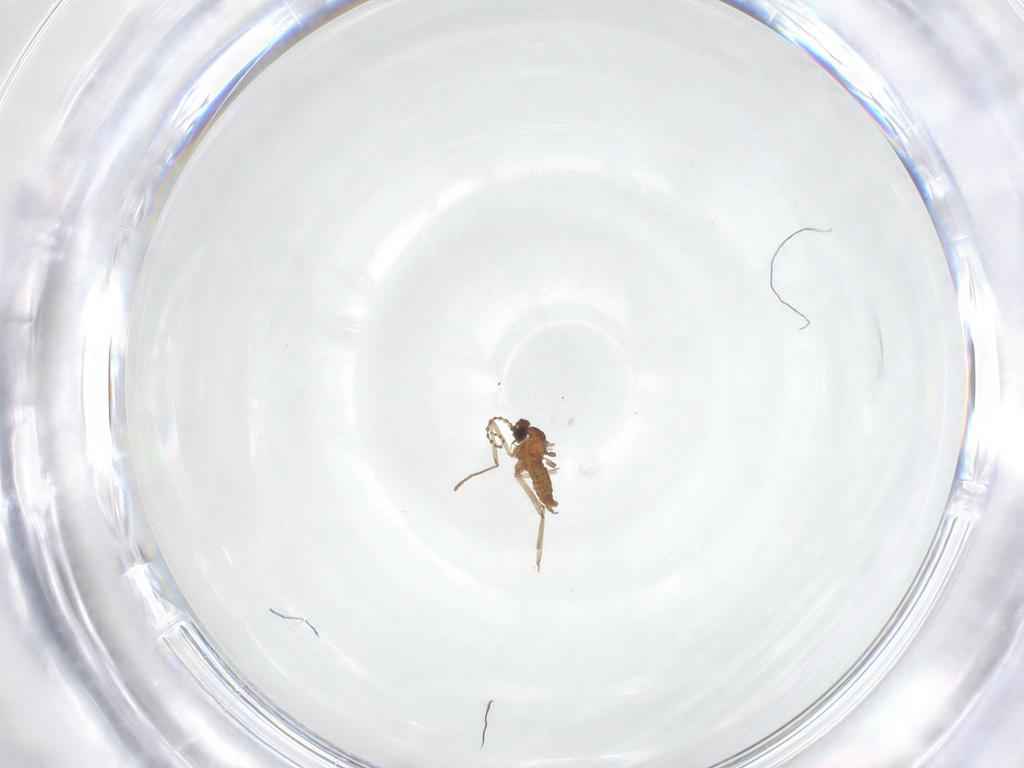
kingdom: Animalia
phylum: Arthropoda
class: Insecta
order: Diptera
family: Cecidomyiidae
